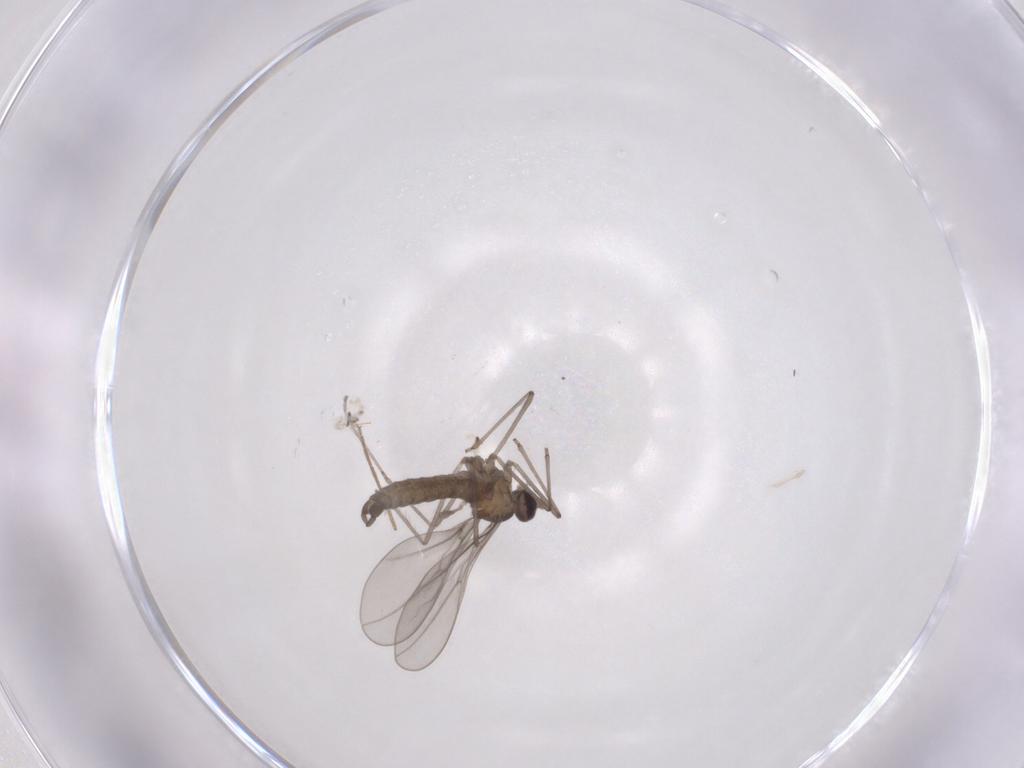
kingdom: Animalia
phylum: Arthropoda
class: Insecta
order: Diptera
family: Cecidomyiidae
